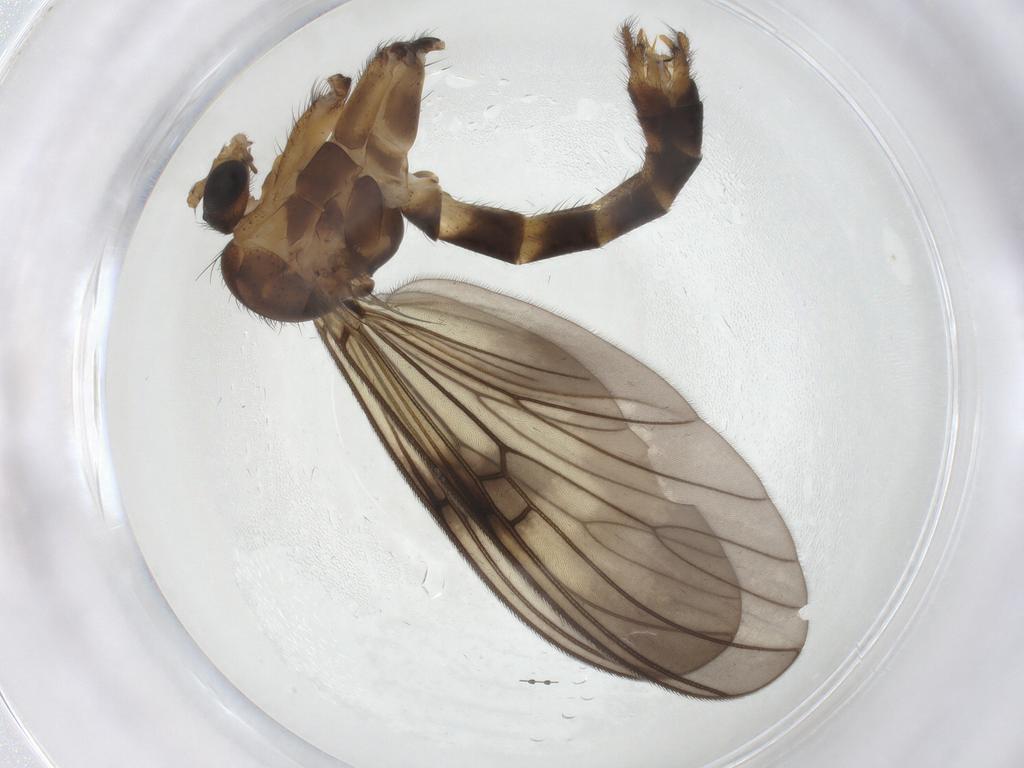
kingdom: Animalia
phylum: Arthropoda
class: Insecta
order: Diptera
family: Mycetophilidae
